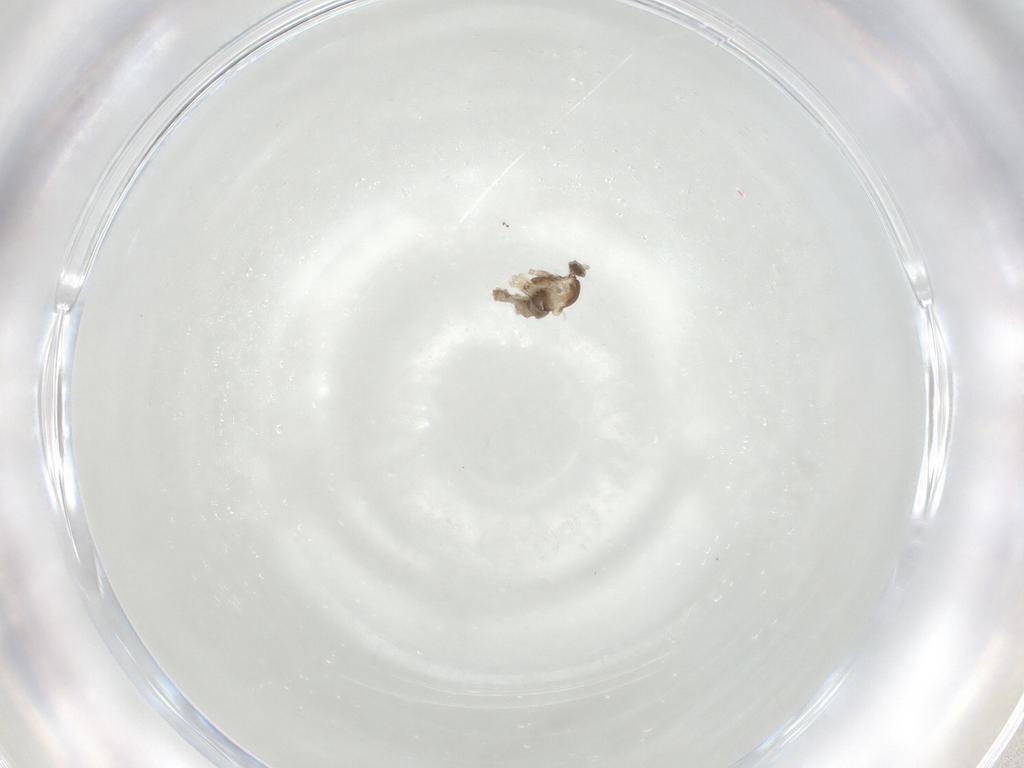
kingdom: Animalia
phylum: Arthropoda
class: Insecta
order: Diptera
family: Cecidomyiidae
